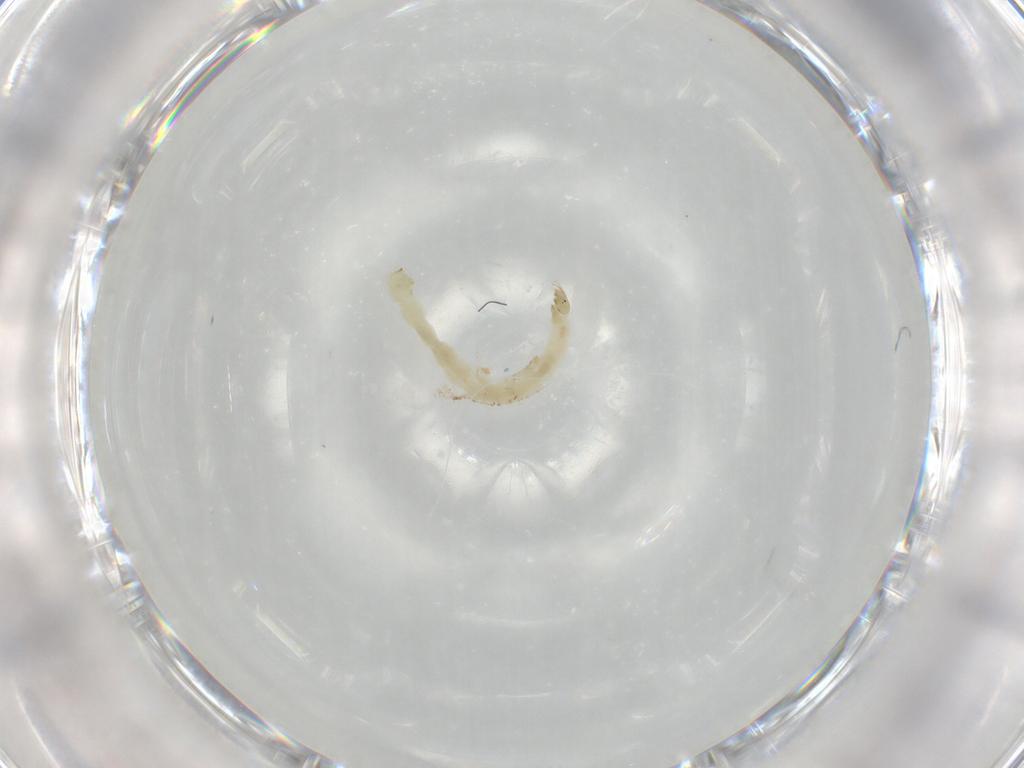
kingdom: Animalia
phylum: Arthropoda
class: Insecta
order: Diptera
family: Chironomidae
